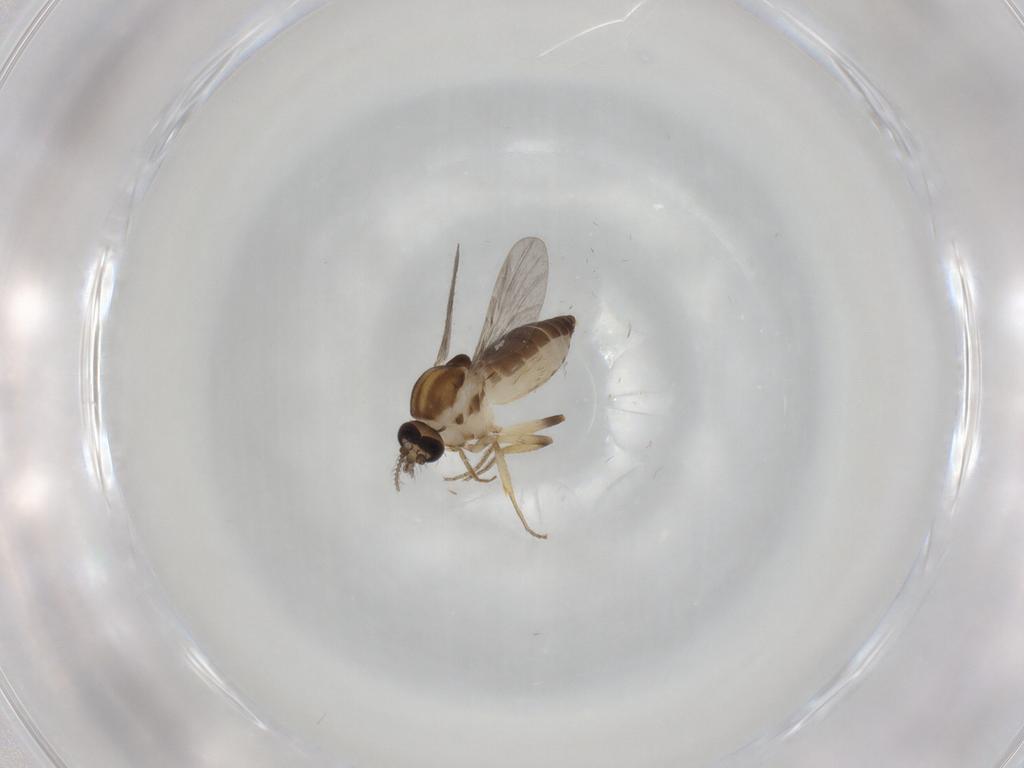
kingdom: Animalia
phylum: Arthropoda
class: Insecta
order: Diptera
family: Ceratopogonidae
